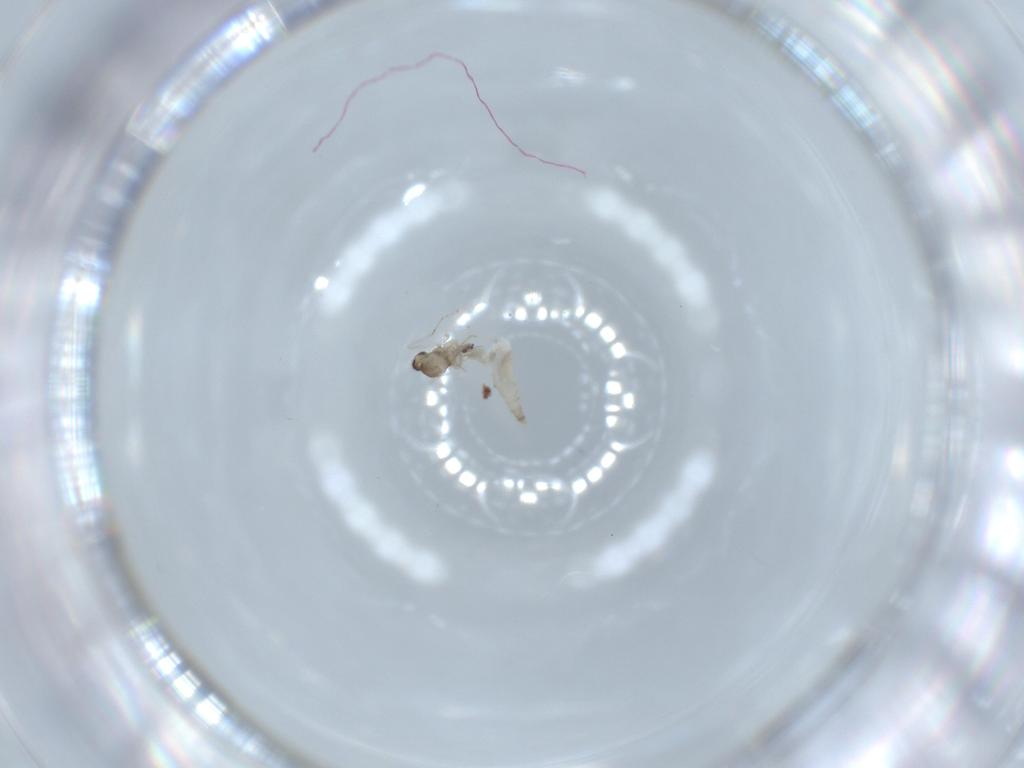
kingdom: Animalia
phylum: Arthropoda
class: Insecta
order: Diptera
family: Cecidomyiidae
